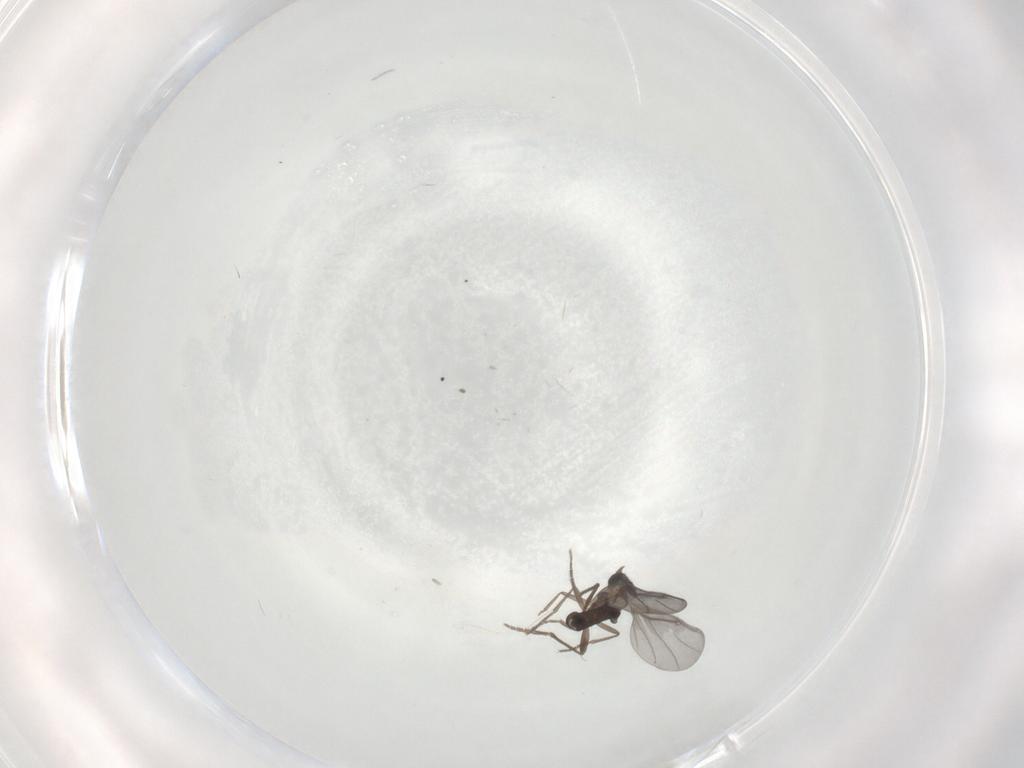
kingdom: Animalia
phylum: Arthropoda
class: Insecta
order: Diptera
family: Phoridae
